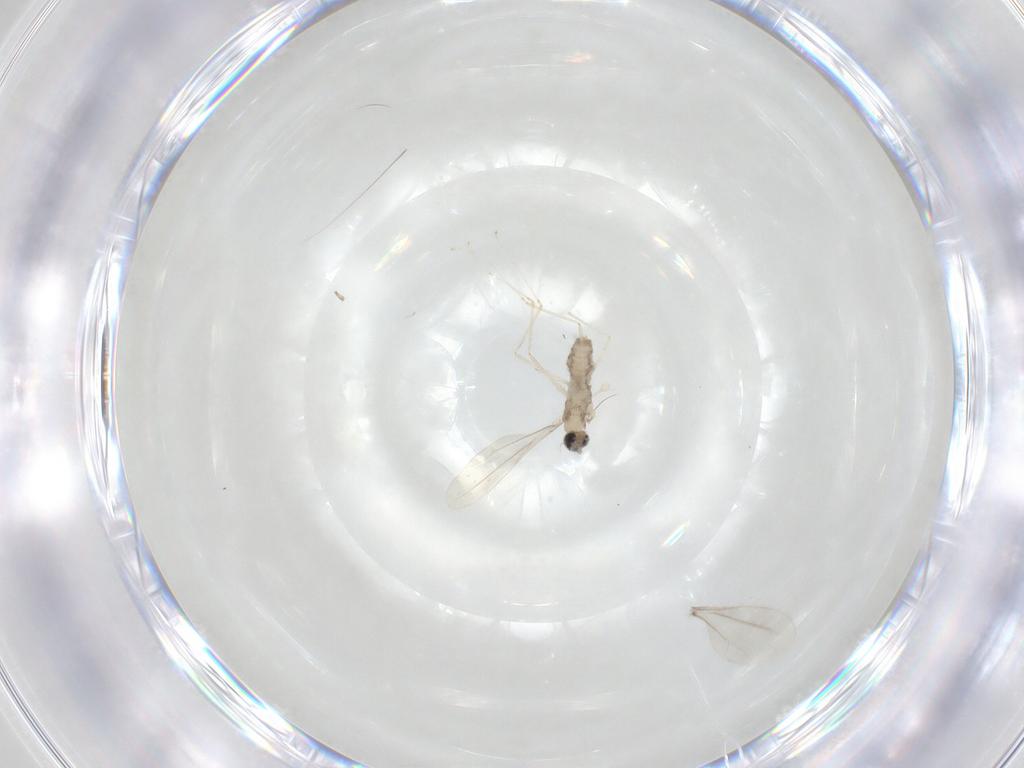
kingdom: Animalia
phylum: Arthropoda
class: Insecta
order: Diptera
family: Cecidomyiidae
